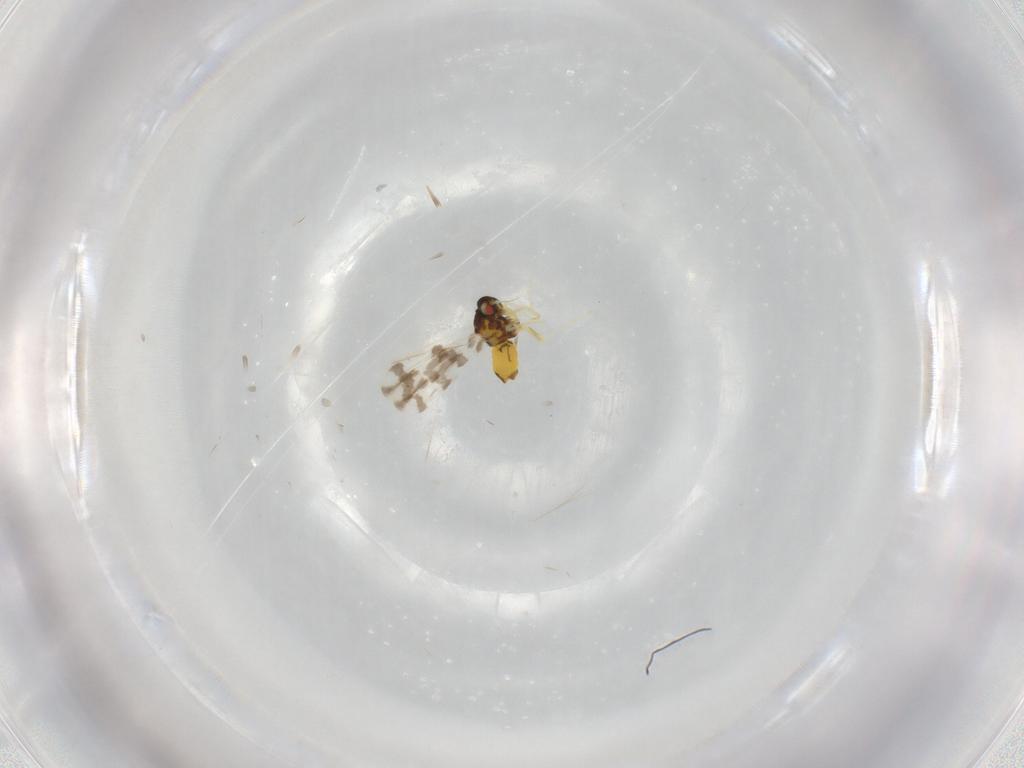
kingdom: Animalia
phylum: Arthropoda
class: Insecta
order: Hemiptera
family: Aleyrodidae
